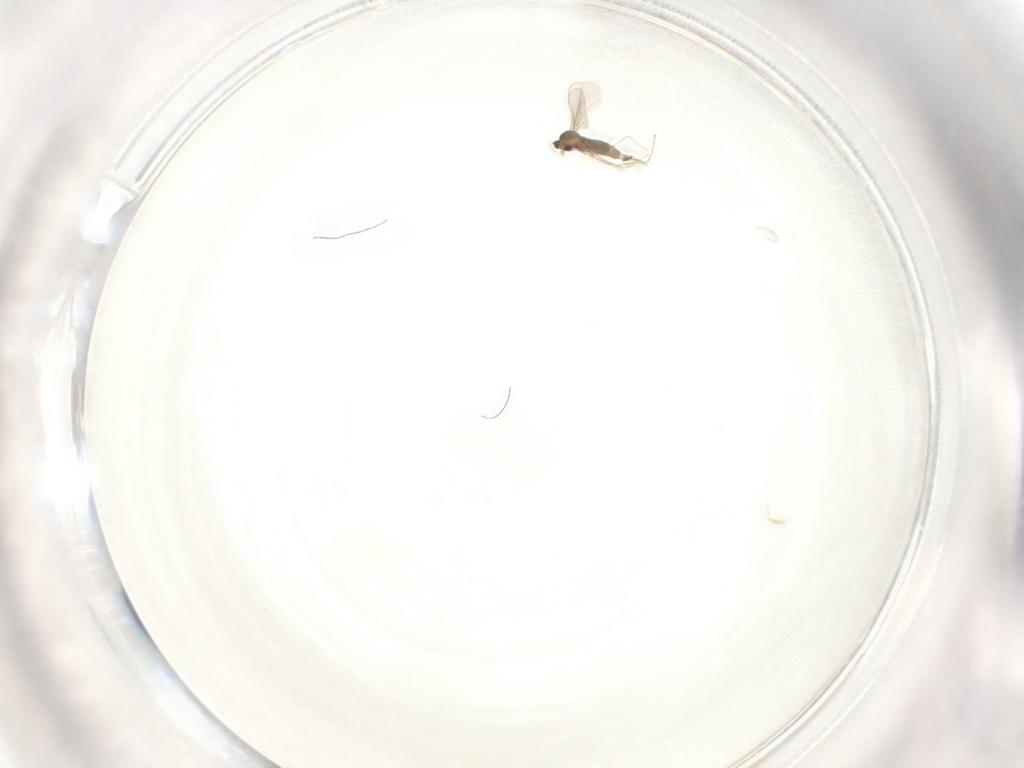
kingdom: Animalia
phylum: Arthropoda
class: Insecta
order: Diptera
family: Cecidomyiidae
